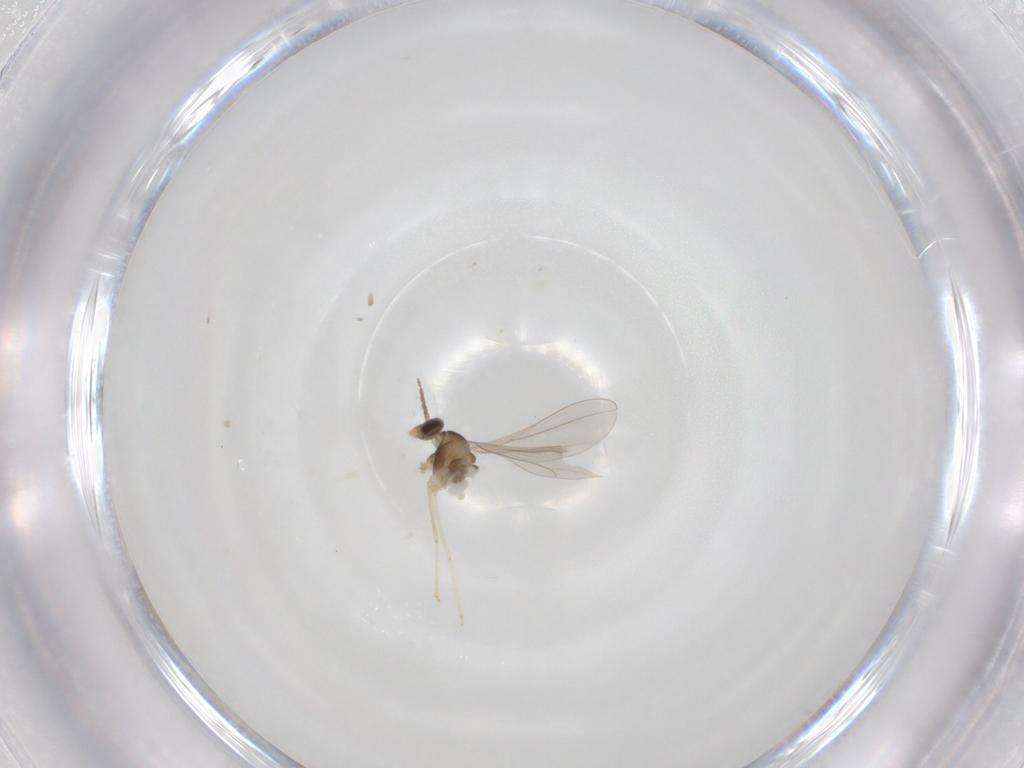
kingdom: Animalia
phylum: Arthropoda
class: Insecta
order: Diptera
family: Cecidomyiidae
